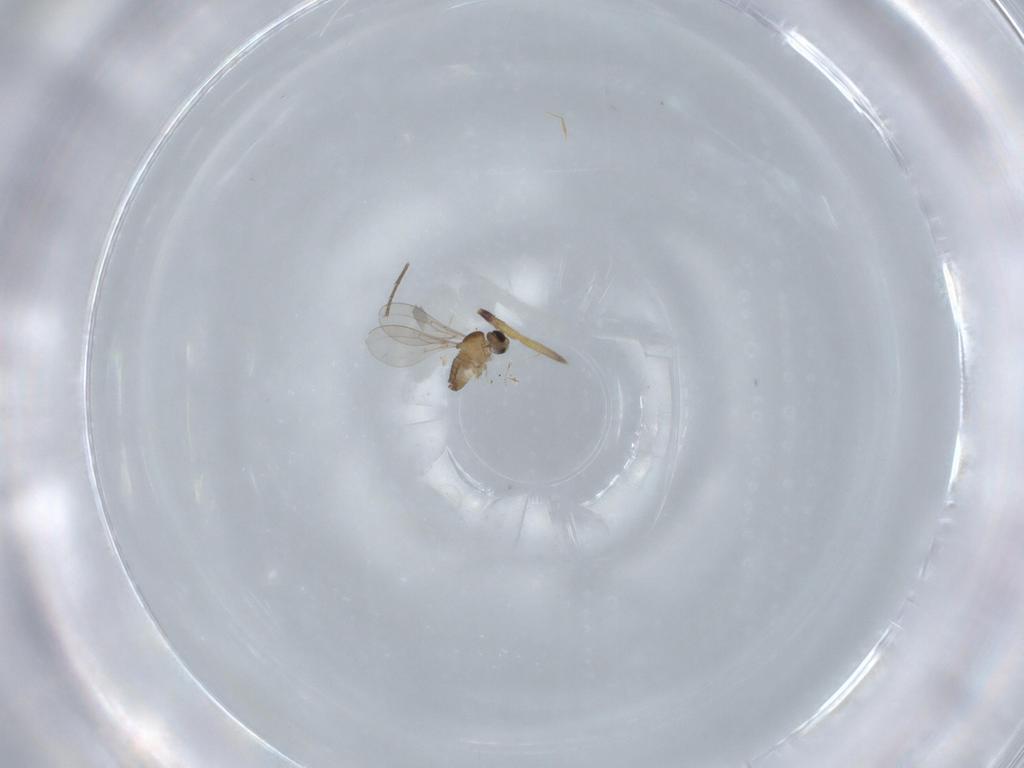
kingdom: Animalia
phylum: Arthropoda
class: Insecta
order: Diptera
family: Cecidomyiidae
